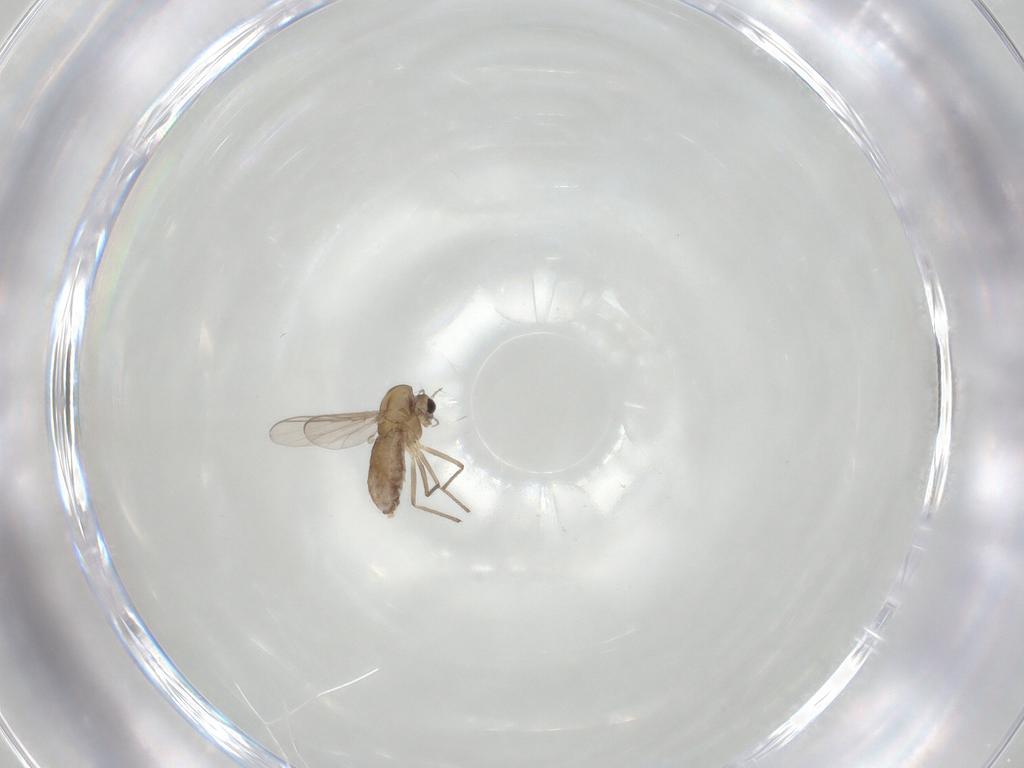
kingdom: Animalia
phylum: Arthropoda
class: Insecta
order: Diptera
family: Chironomidae
